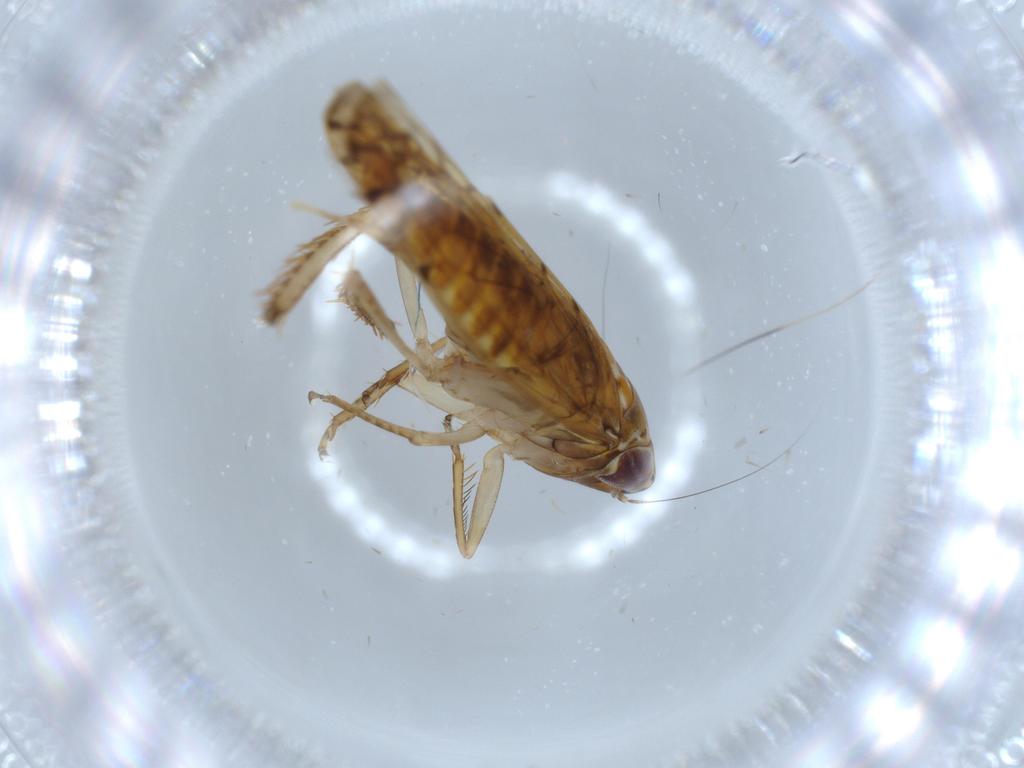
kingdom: Animalia
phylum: Arthropoda
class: Insecta
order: Hemiptera
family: Cicadellidae
